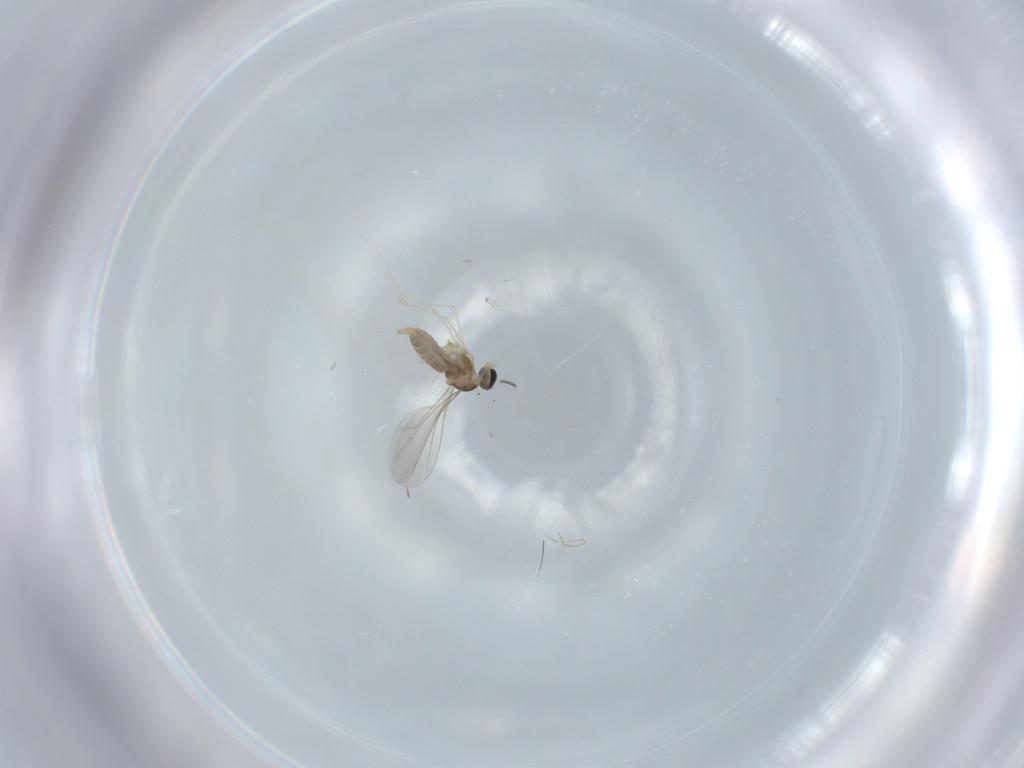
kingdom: Animalia
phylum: Arthropoda
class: Insecta
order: Diptera
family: Cecidomyiidae
